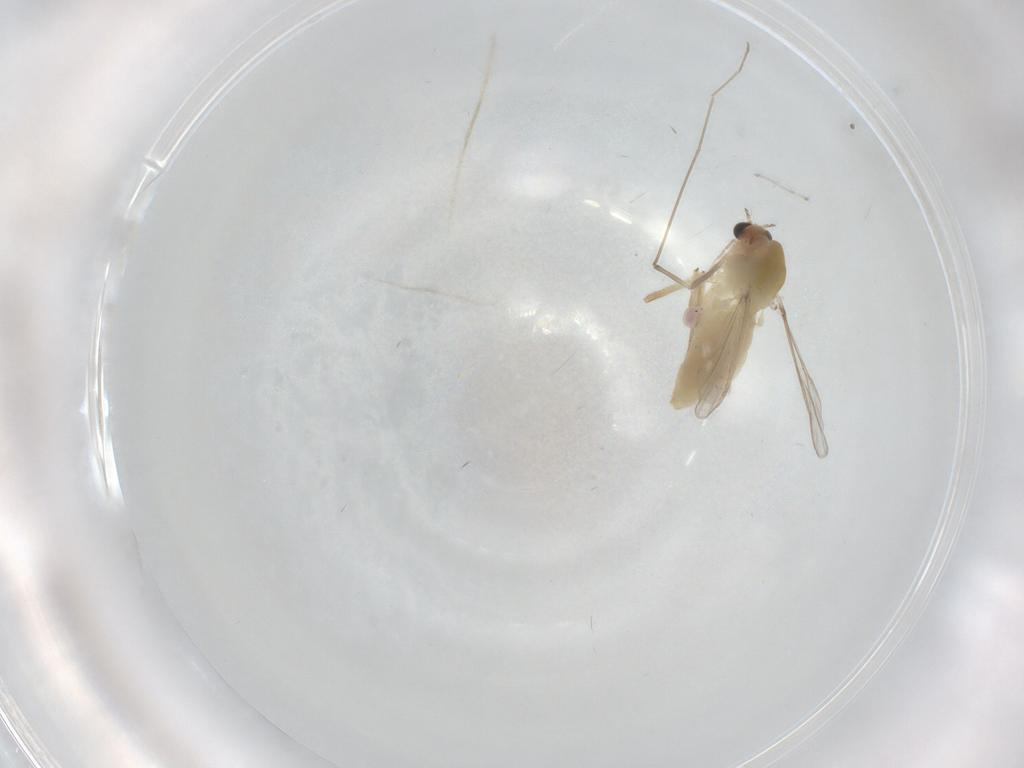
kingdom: Animalia
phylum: Arthropoda
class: Insecta
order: Diptera
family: Chironomidae
